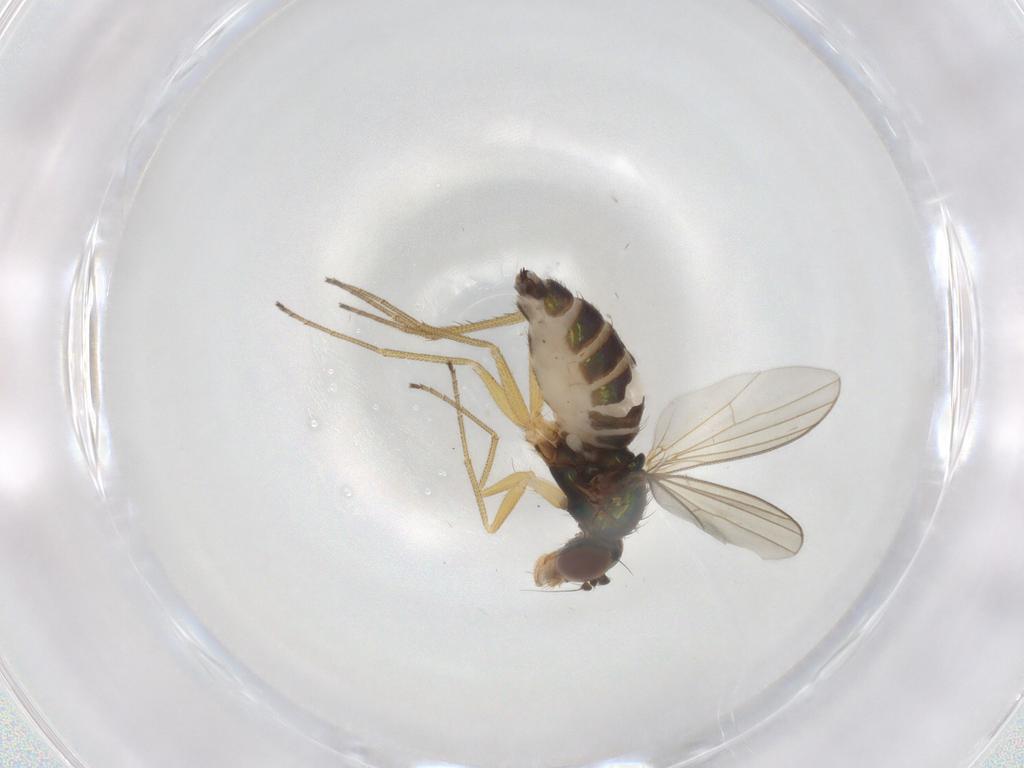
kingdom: Animalia
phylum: Arthropoda
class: Insecta
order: Diptera
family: Dolichopodidae
